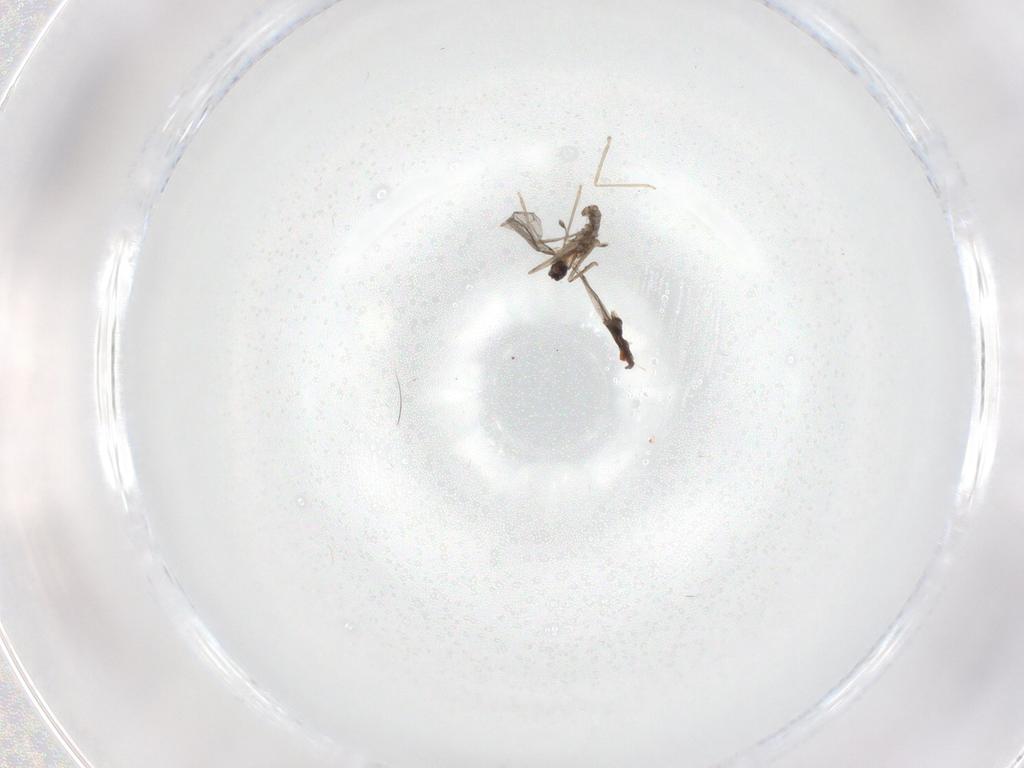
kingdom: Animalia
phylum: Arthropoda
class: Insecta
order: Diptera
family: Cecidomyiidae
